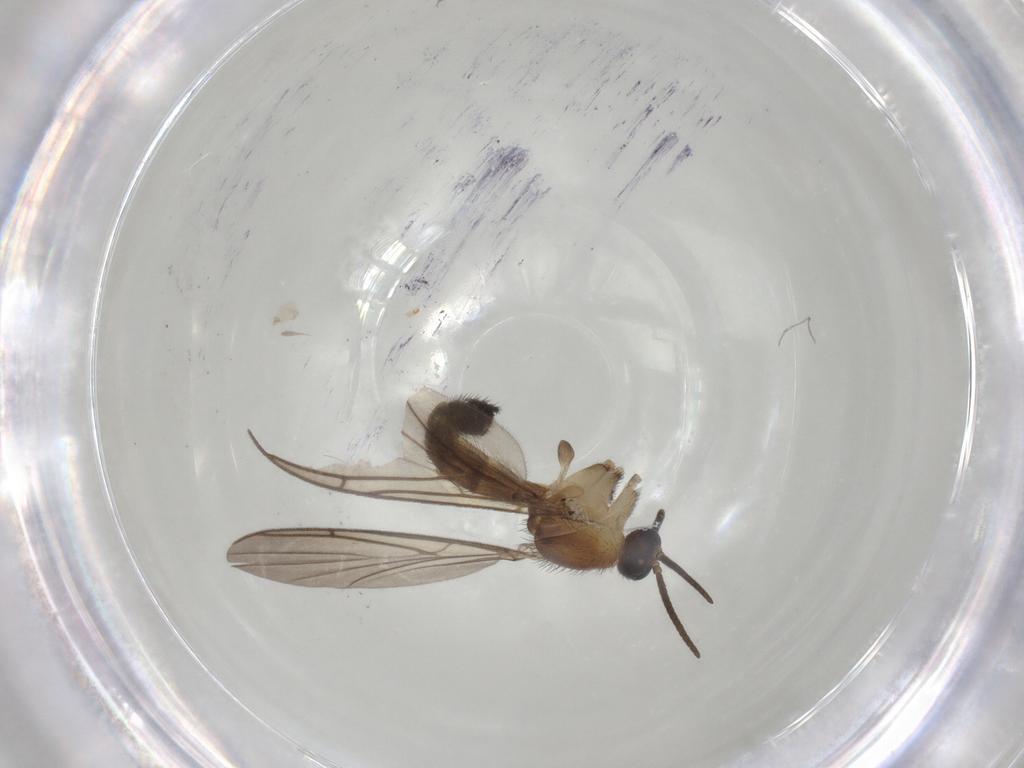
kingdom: Animalia
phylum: Arthropoda
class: Insecta
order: Diptera
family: Keroplatidae
